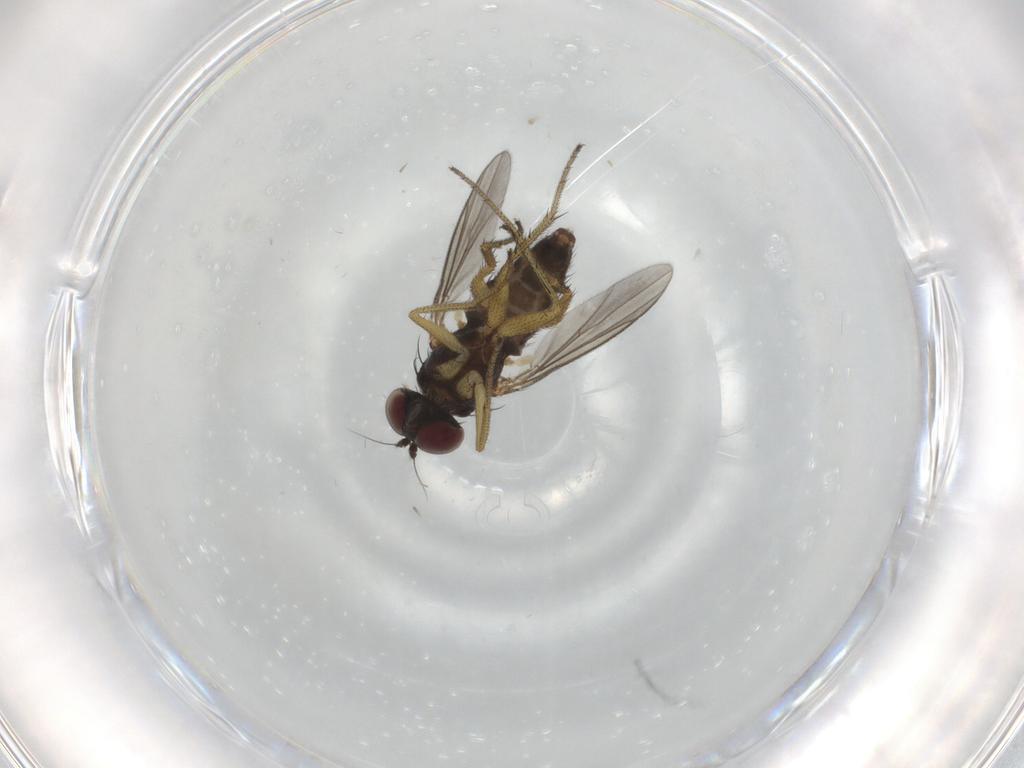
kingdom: Animalia
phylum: Arthropoda
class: Insecta
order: Diptera
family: Dolichopodidae
